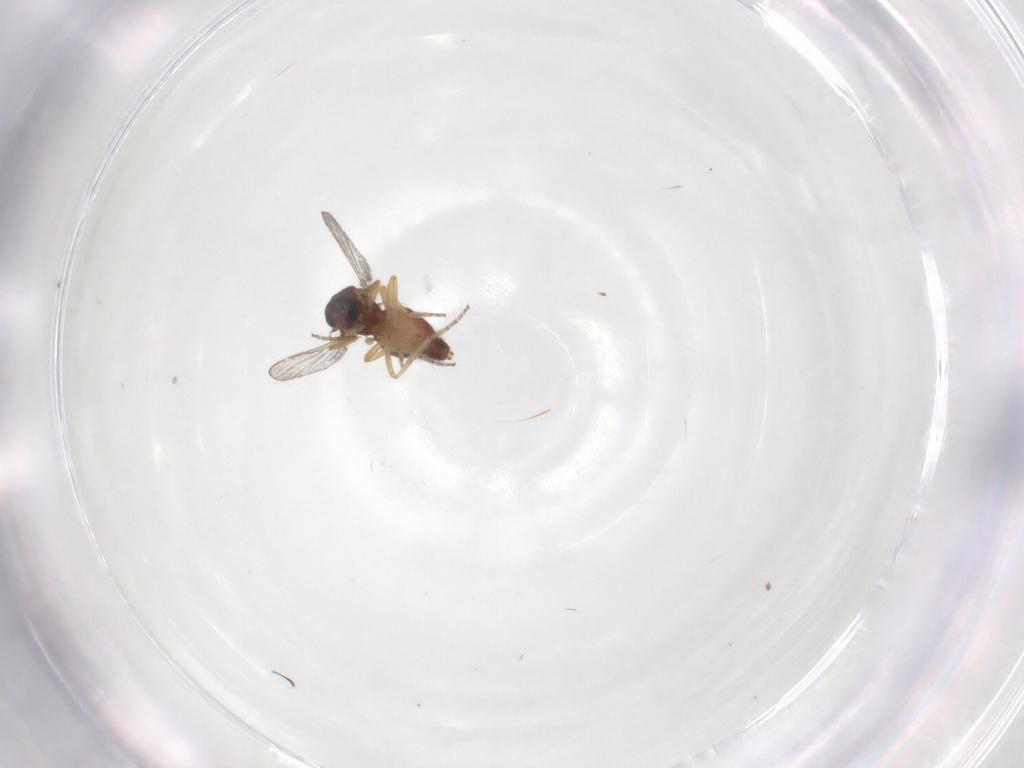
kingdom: Animalia
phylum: Arthropoda
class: Insecta
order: Diptera
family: Ceratopogonidae
